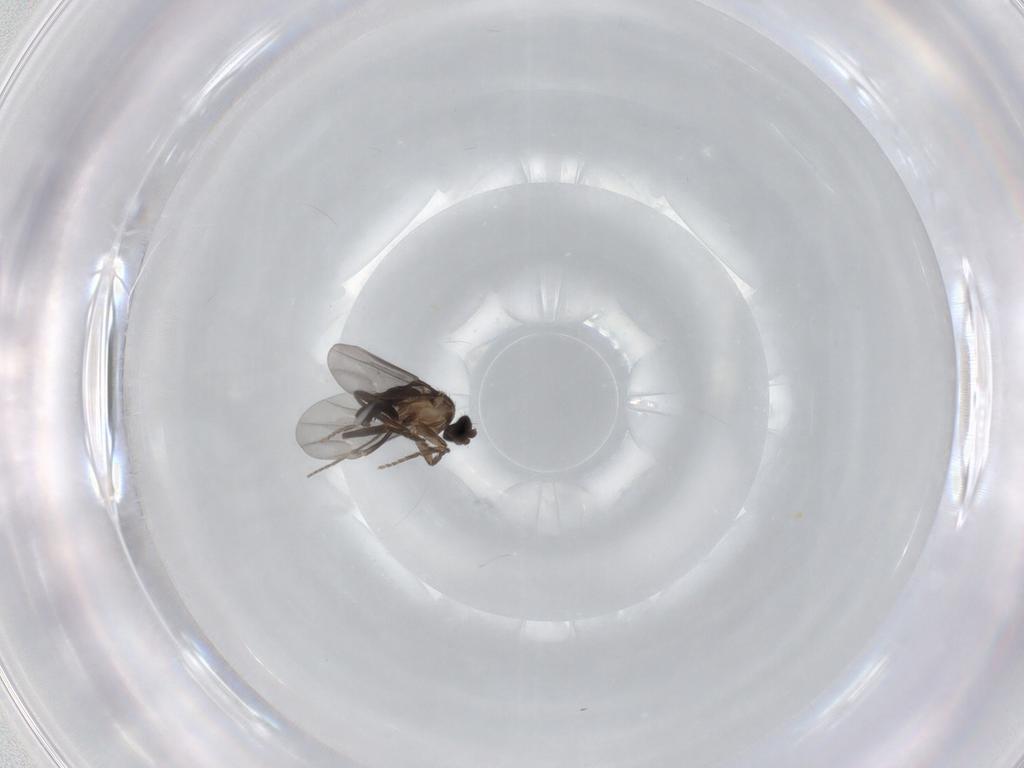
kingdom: Animalia
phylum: Arthropoda
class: Insecta
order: Diptera
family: Phoridae
